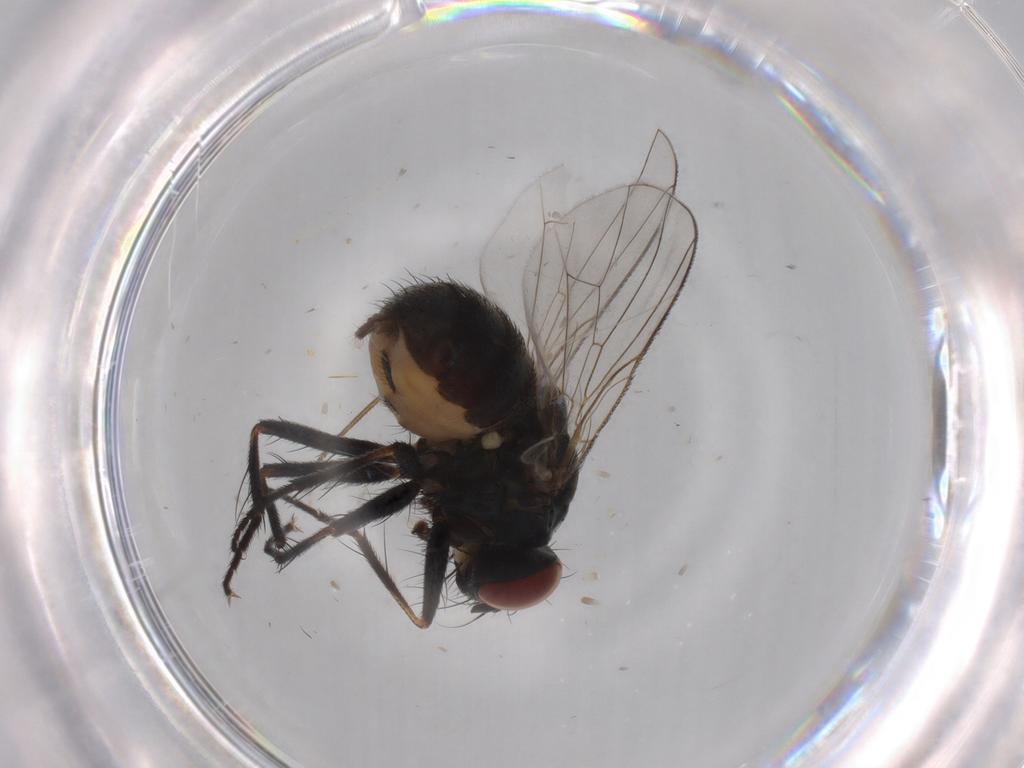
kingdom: Animalia
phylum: Arthropoda
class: Insecta
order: Diptera
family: Muscidae
